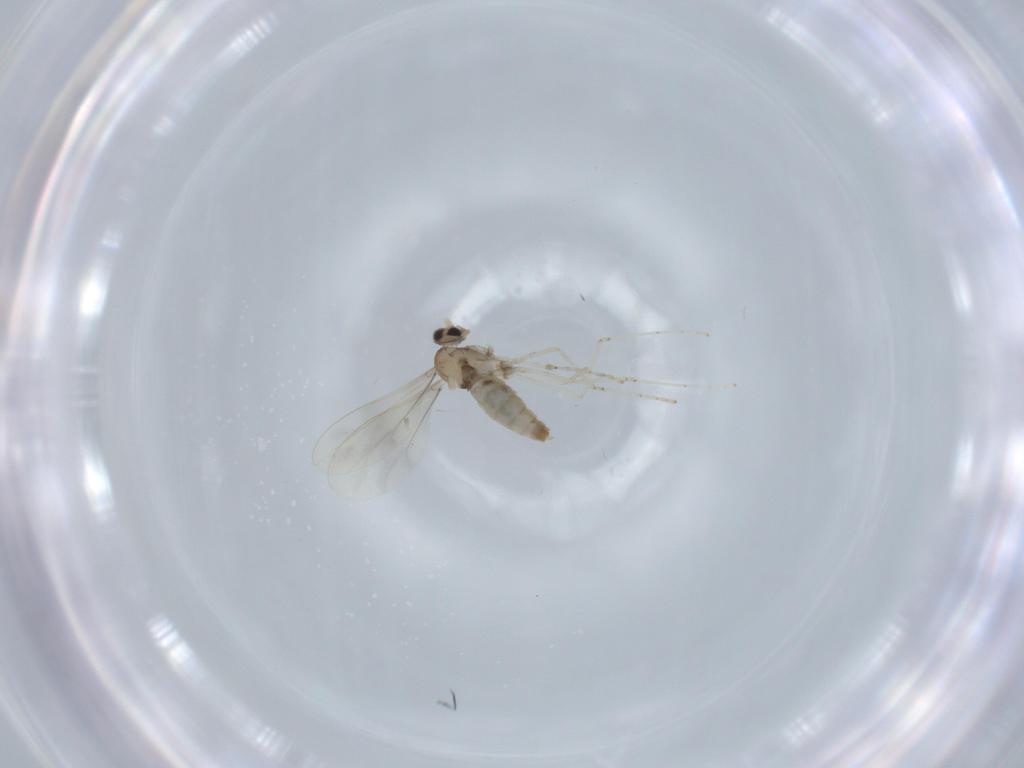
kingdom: Animalia
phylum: Arthropoda
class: Insecta
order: Diptera
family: Cecidomyiidae
